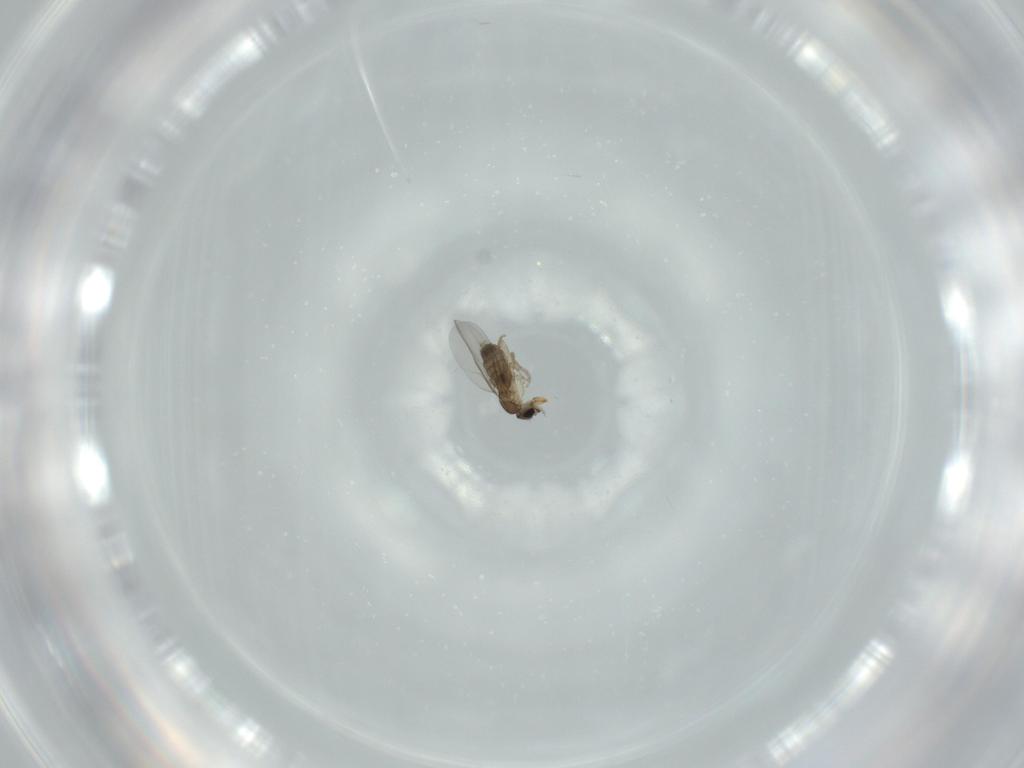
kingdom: Animalia
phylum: Arthropoda
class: Insecta
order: Diptera
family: Phoridae
